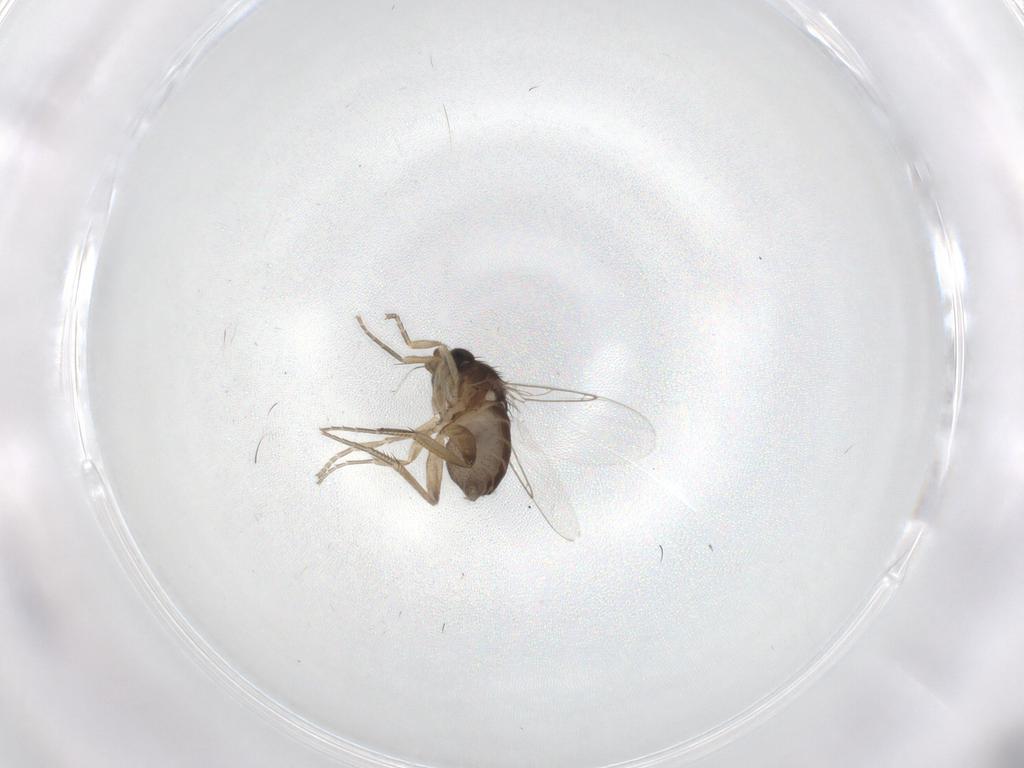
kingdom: Animalia
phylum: Arthropoda
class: Insecta
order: Diptera
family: Phoridae
